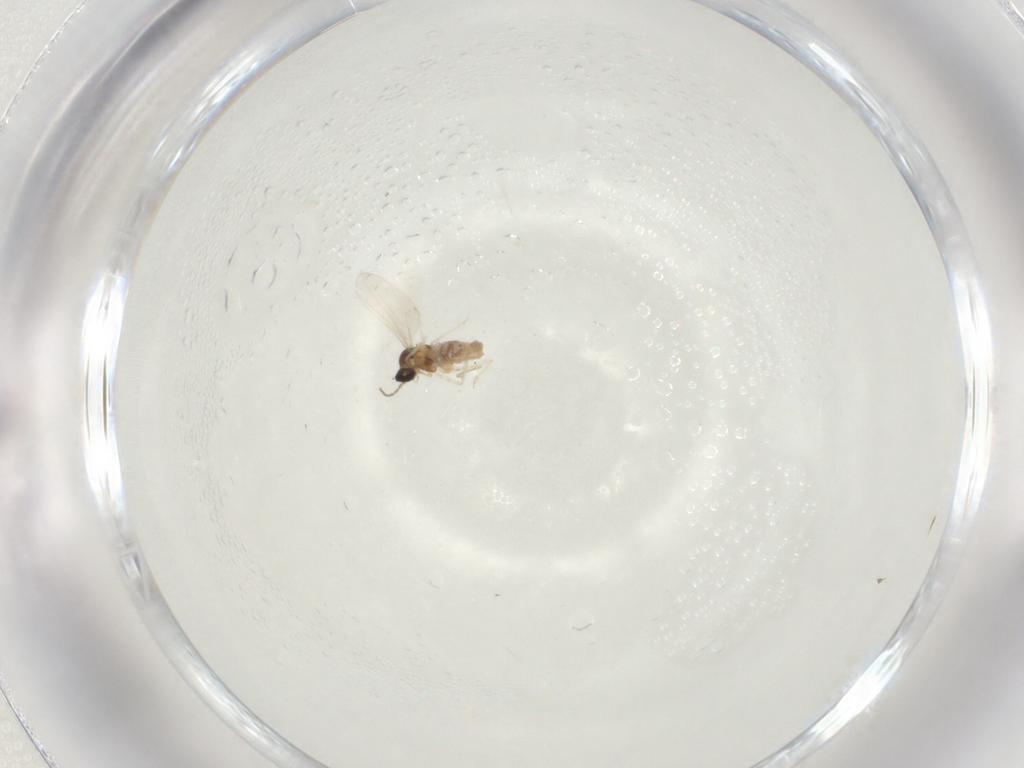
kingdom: Animalia
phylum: Arthropoda
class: Insecta
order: Diptera
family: Cecidomyiidae
